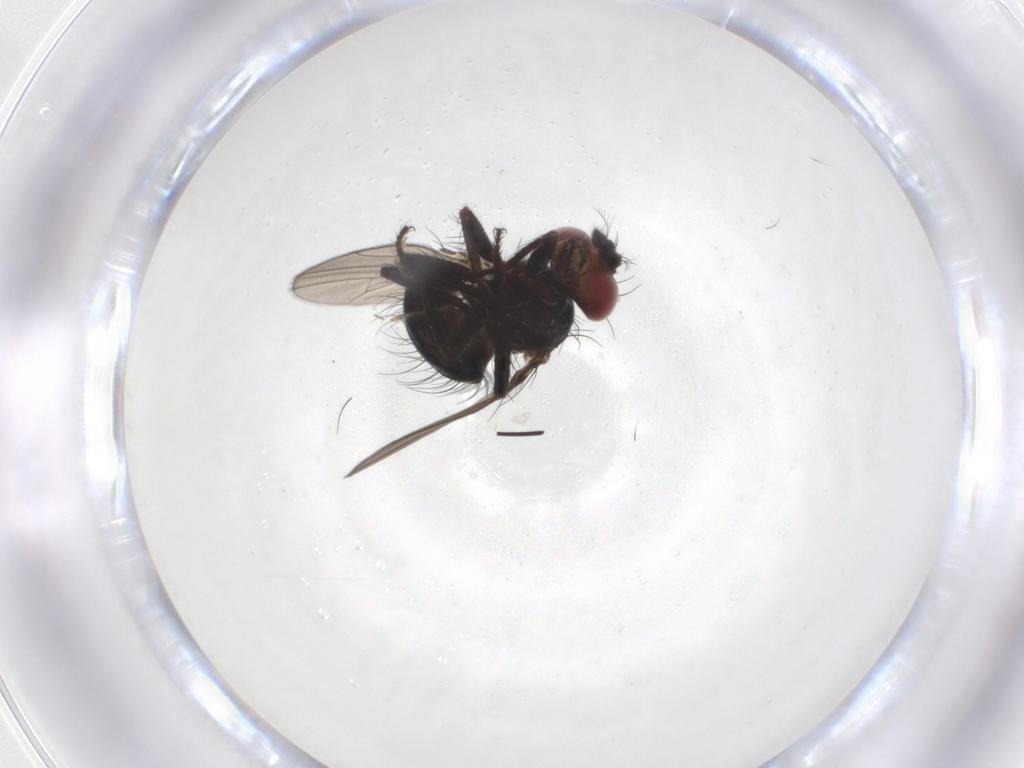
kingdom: Animalia
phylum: Arthropoda
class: Insecta
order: Diptera
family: Ephydridae
